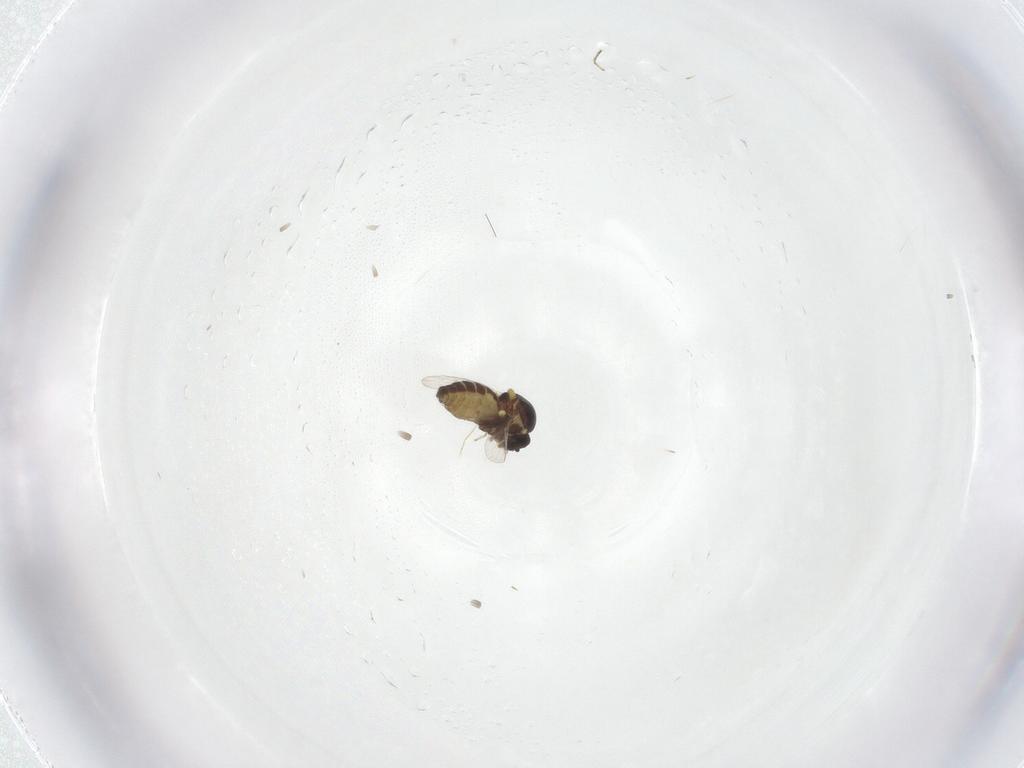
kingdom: Animalia
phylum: Arthropoda
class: Insecta
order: Diptera
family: Ceratopogonidae
